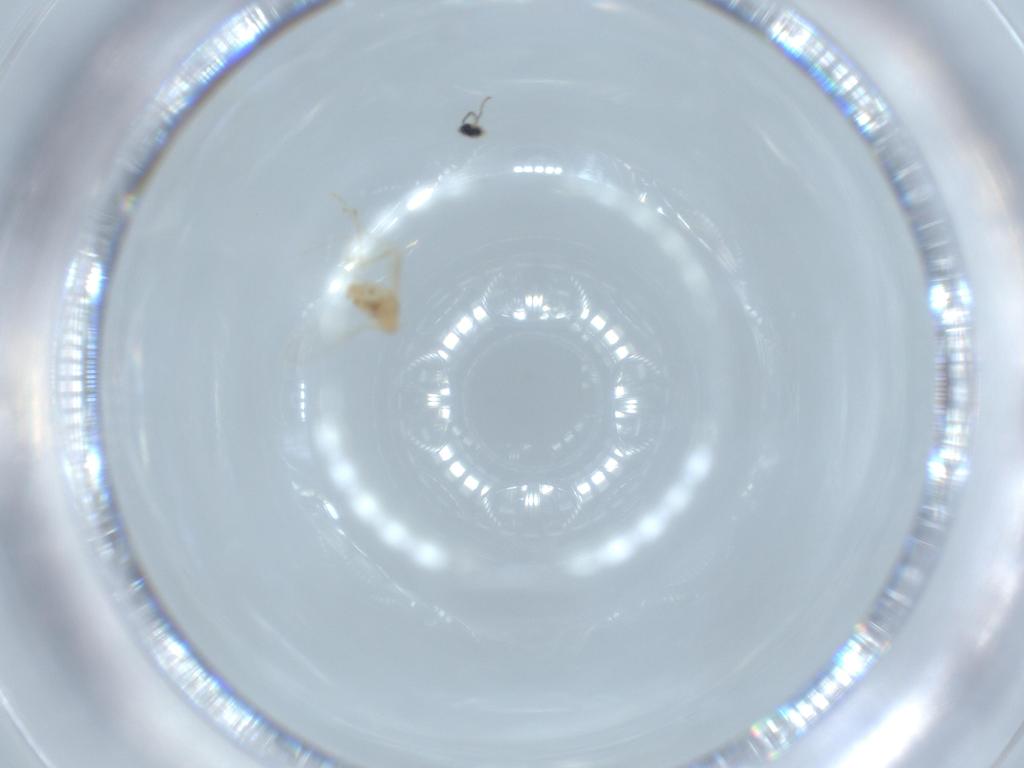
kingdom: Animalia
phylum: Arthropoda
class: Insecta
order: Diptera
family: Cecidomyiidae
